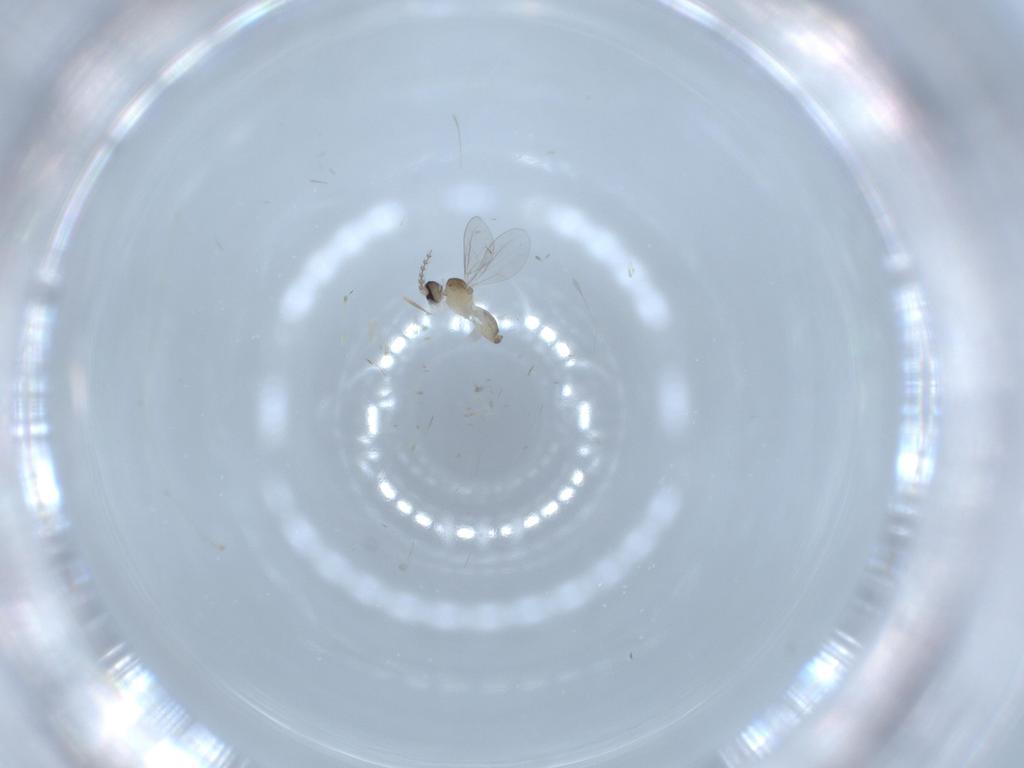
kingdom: Animalia
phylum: Arthropoda
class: Insecta
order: Diptera
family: Cecidomyiidae
